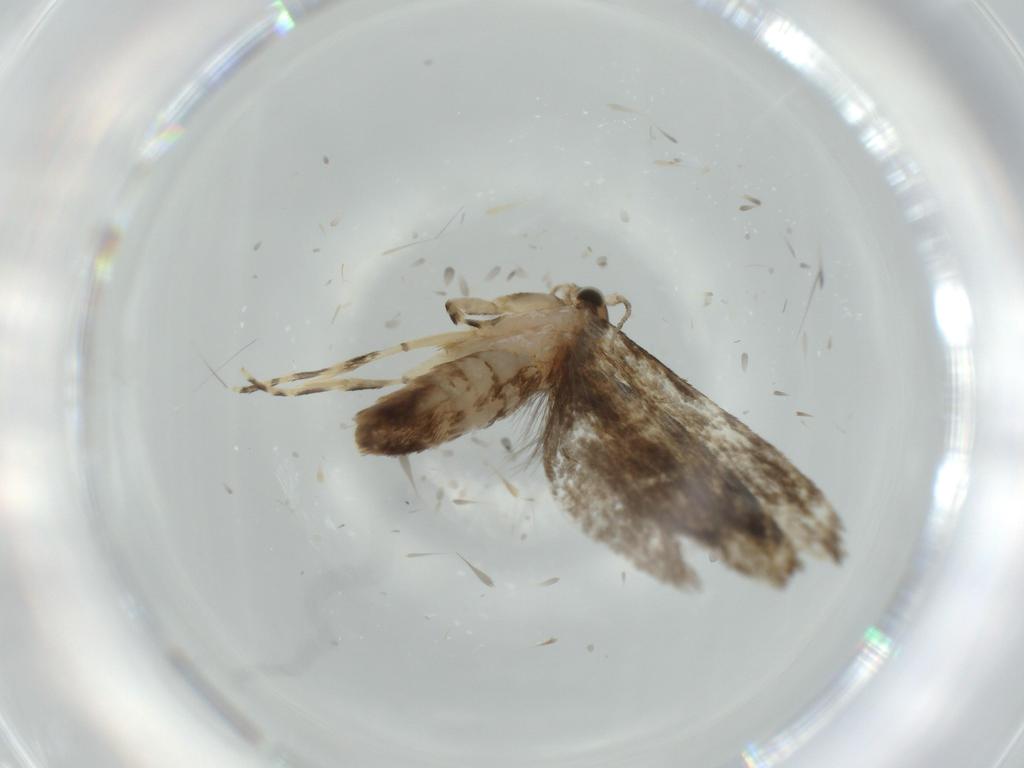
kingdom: Animalia
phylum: Arthropoda
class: Insecta
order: Lepidoptera
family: Tineidae
